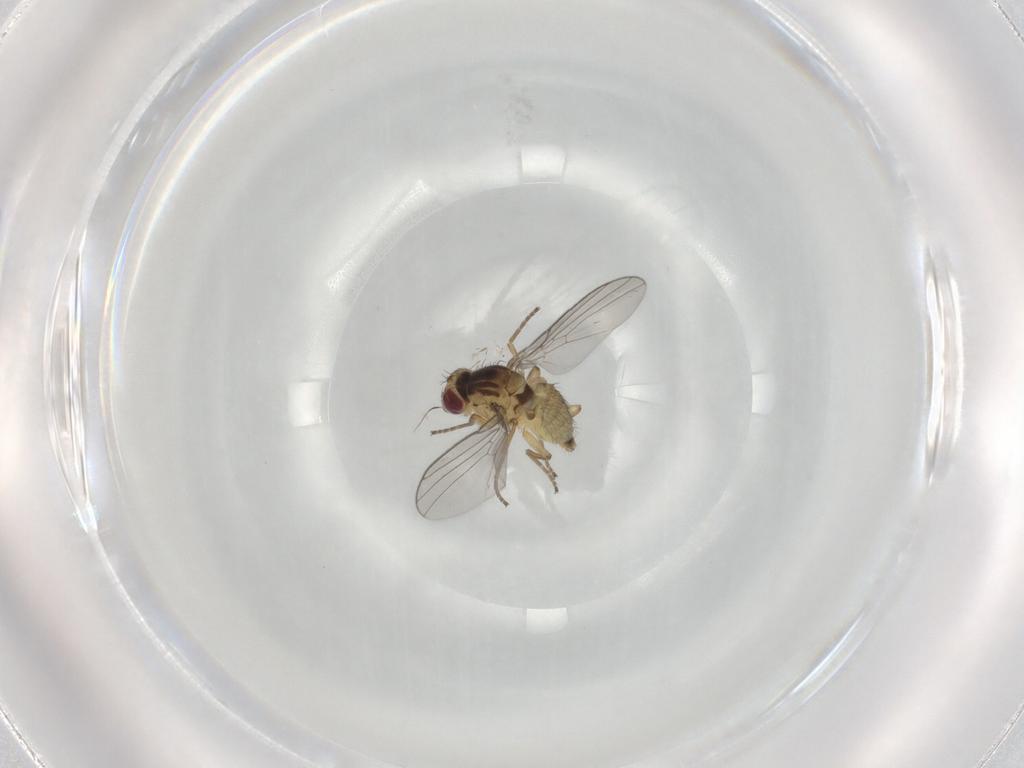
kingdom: Animalia
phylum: Arthropoda
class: Insecta
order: Diptera
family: Agromyzidae
